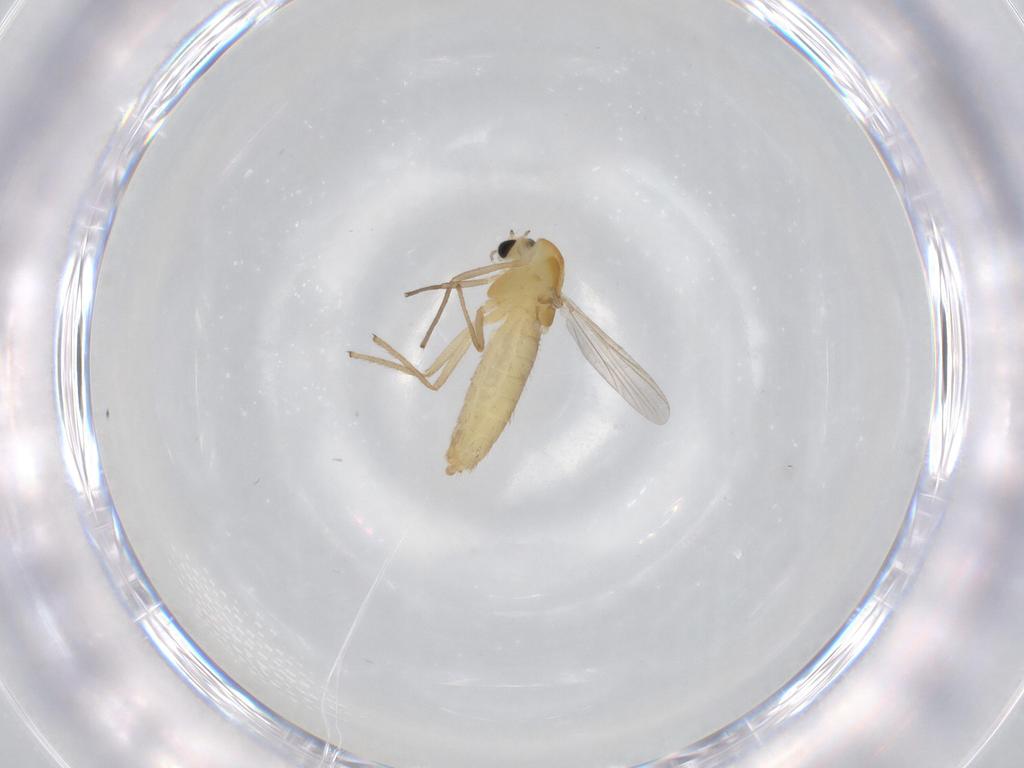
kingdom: Animalia
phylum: Arthropoda
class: Insecta
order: Diptera
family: Chironomidae
